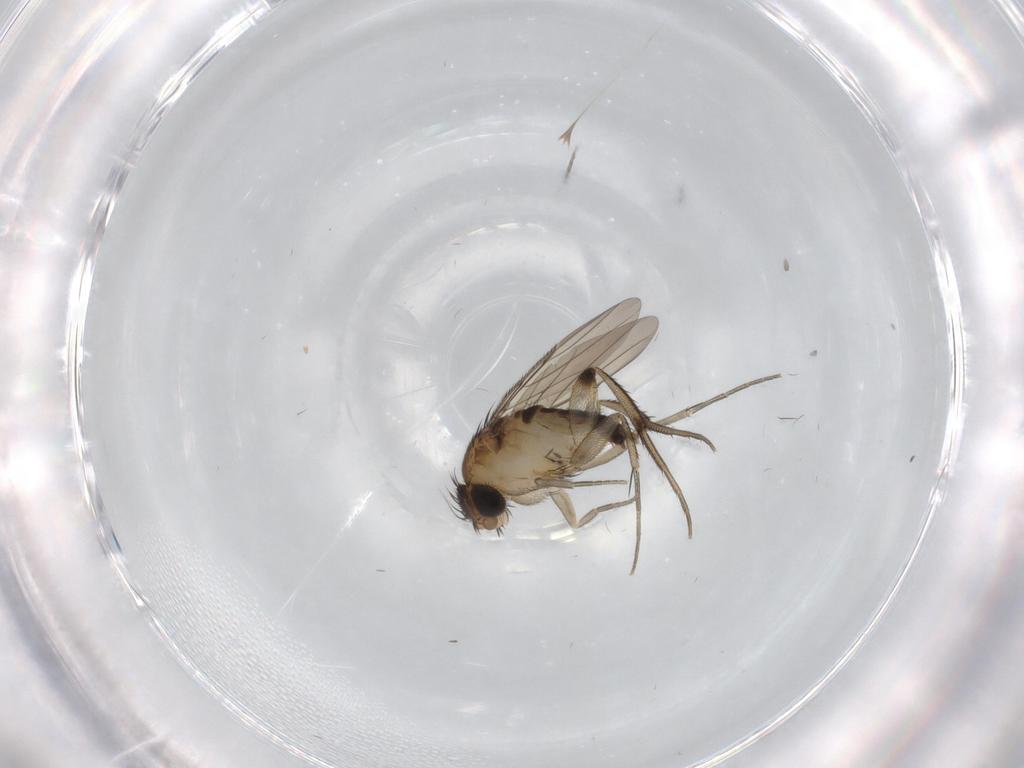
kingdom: Animalia
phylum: Arthropoda
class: Insecta
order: Diptera
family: Phoridae
